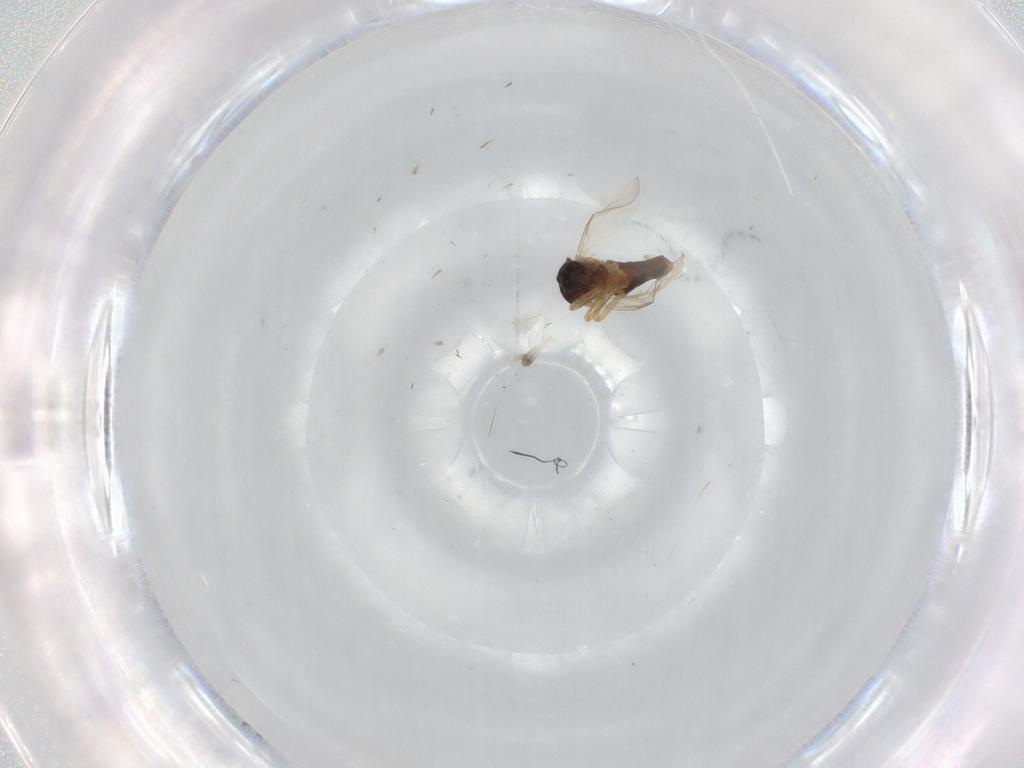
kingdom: Animalia
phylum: Arthropoda
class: Insecta
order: Diptera
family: Ceratopogonidae
